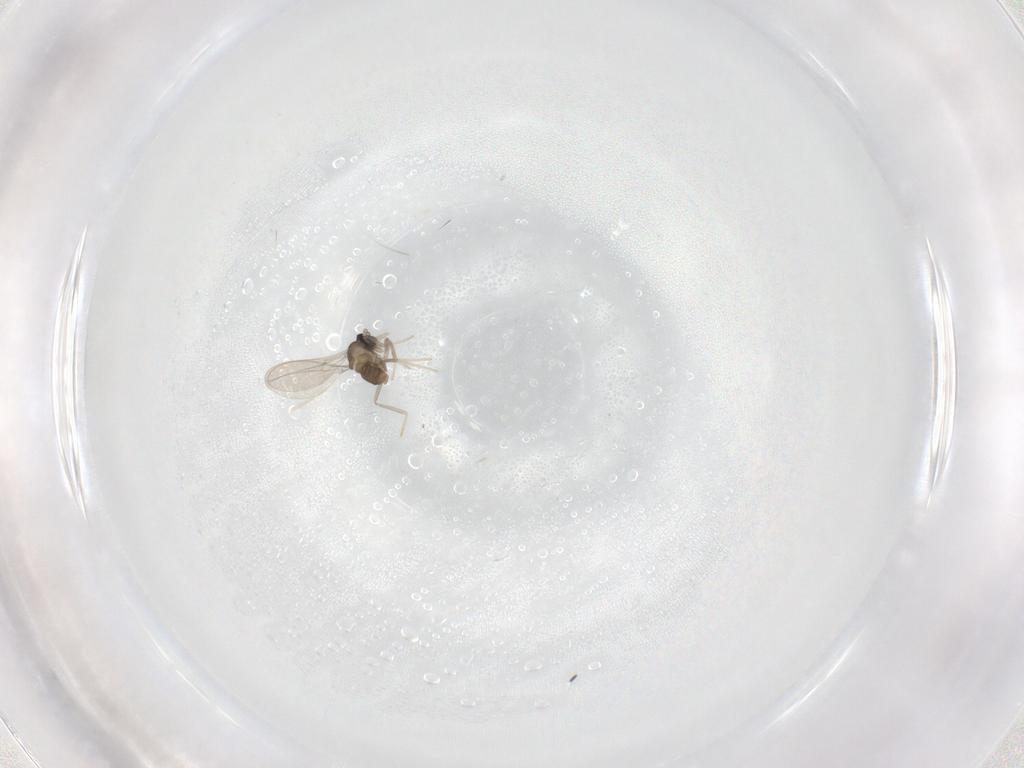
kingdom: Animalia
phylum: Arthropoda
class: Insecta
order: Diptera
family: Cecidomyiidae
